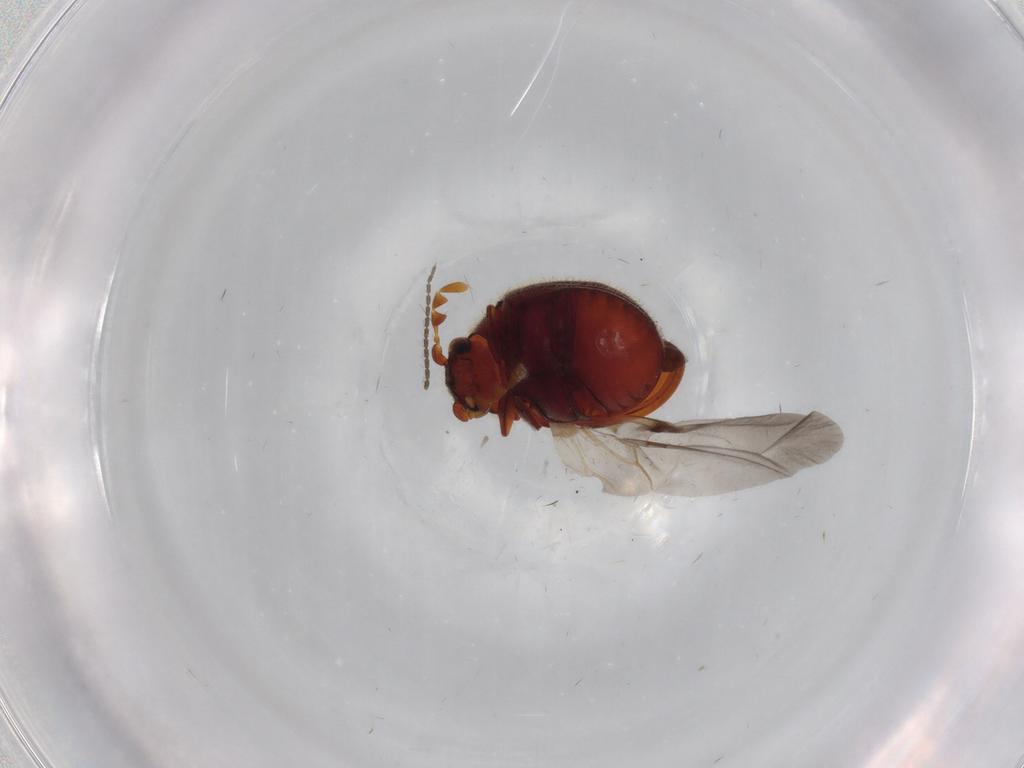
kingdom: Animalia
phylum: Arthropoda
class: Insecta
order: Coleoptera
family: Ptinidae
